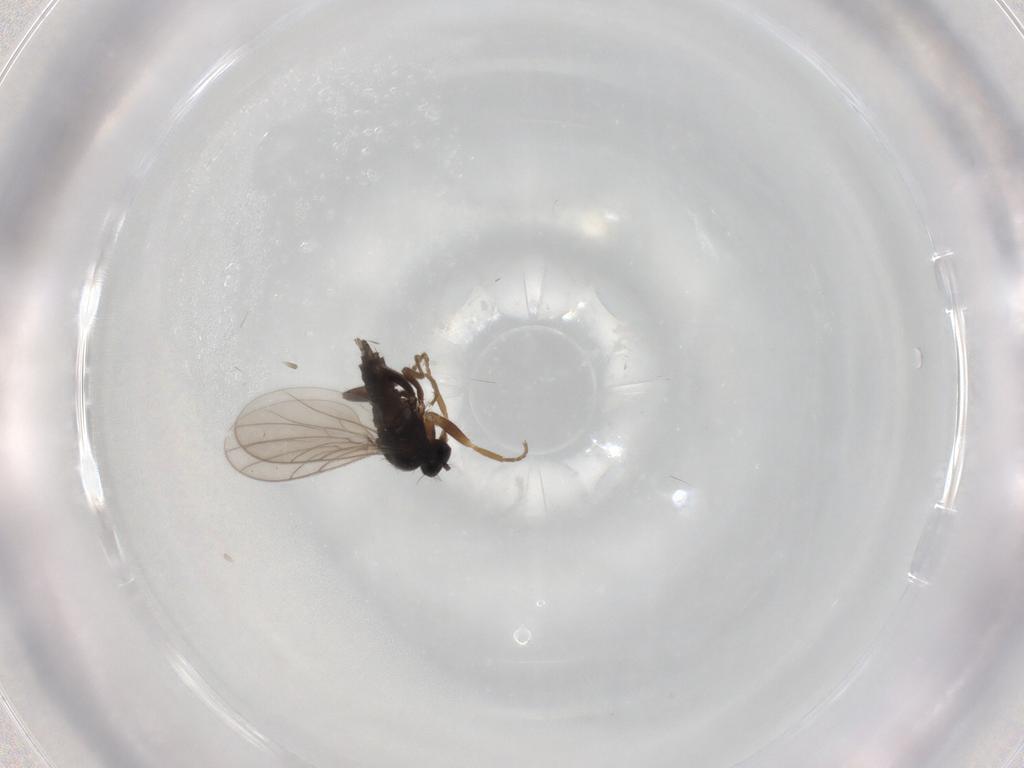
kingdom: Animalia
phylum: Arthropoda
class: Insecta
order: Diptera
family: Hybotidae
